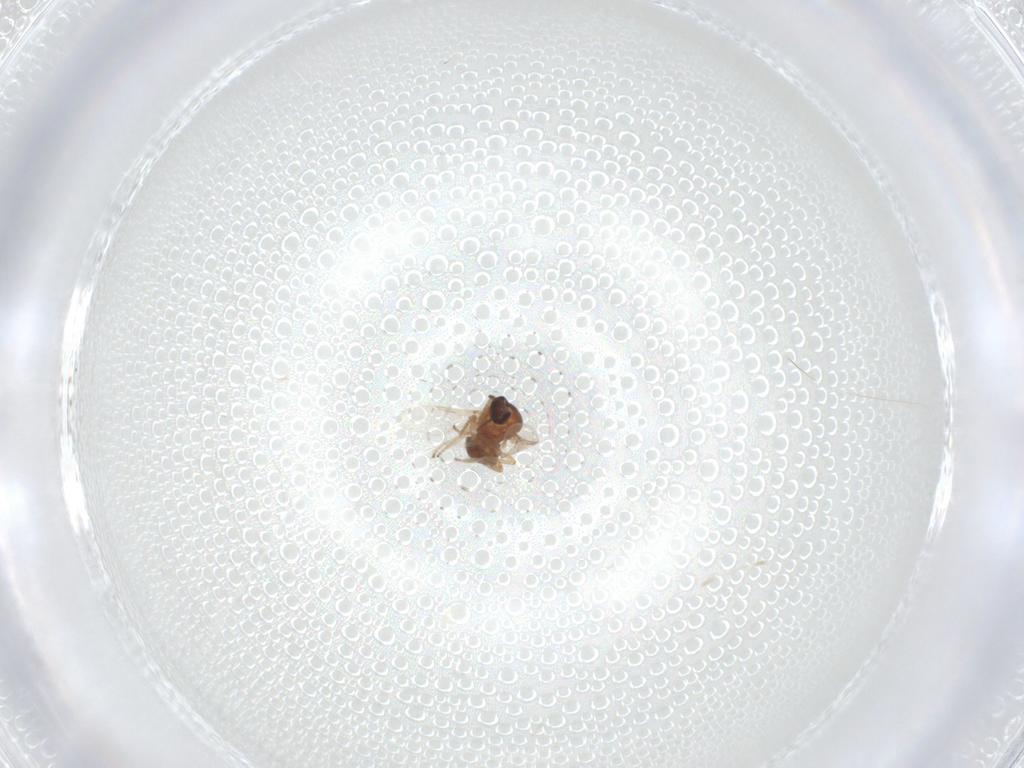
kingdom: Animalia
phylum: Arthropoda
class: Insecta
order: Diptera
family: Ceratopogonidae
